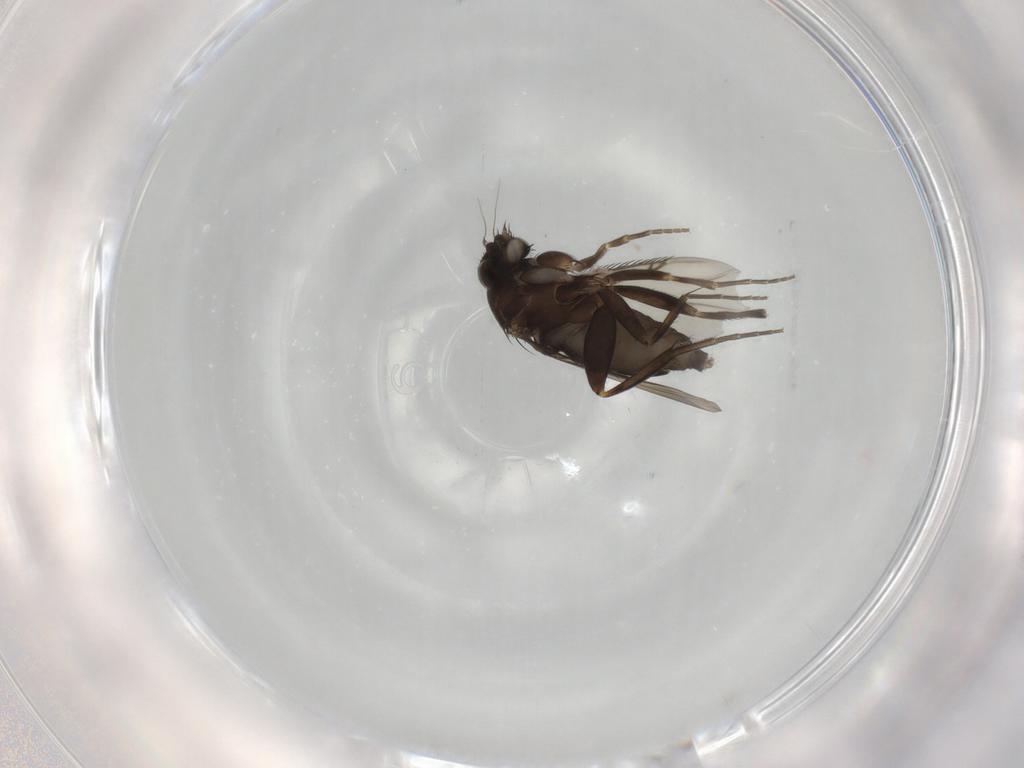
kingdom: Animalia
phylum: Arthropoda
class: Insecta
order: Diptera
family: Phoridae
